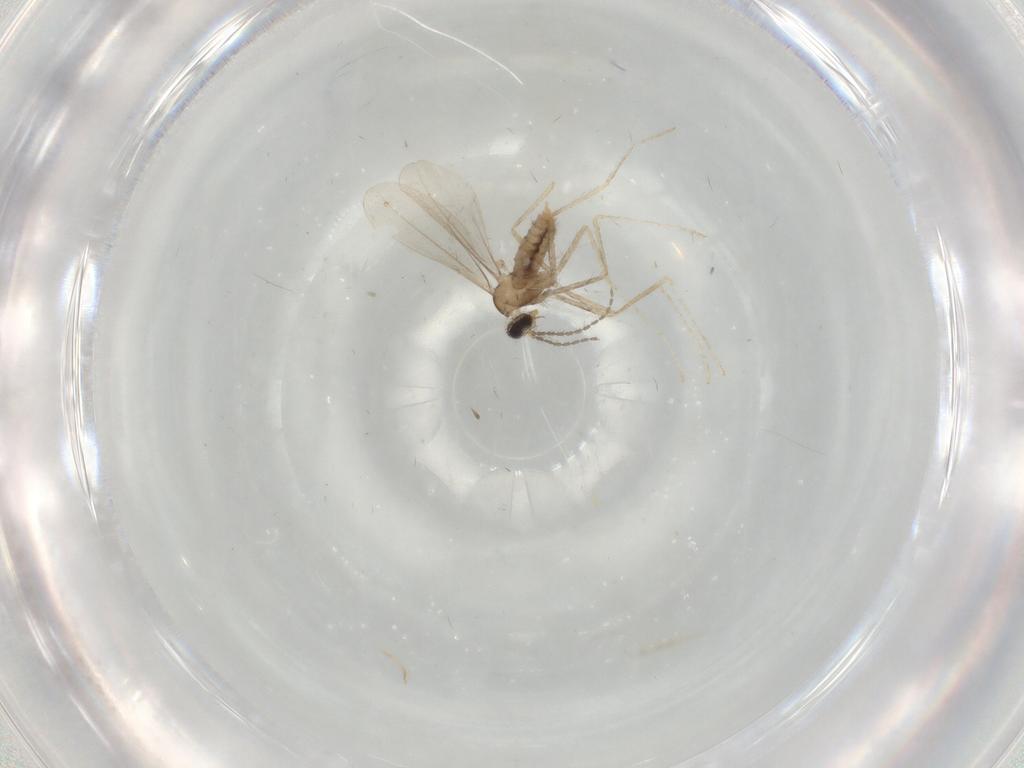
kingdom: Animalia
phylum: Arthropoda
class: Insecta
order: Diptera
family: Cecidomyiidae
